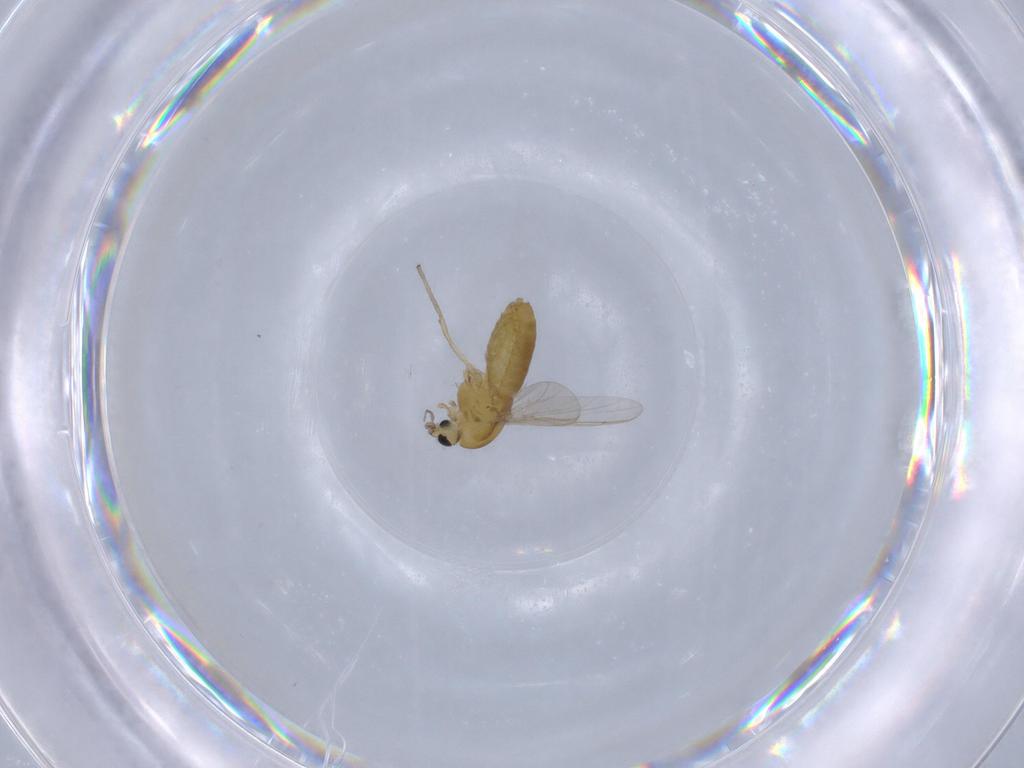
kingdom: Animalia
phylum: Arthropoda
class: Insecta
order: Diptera
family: Chironomidae
